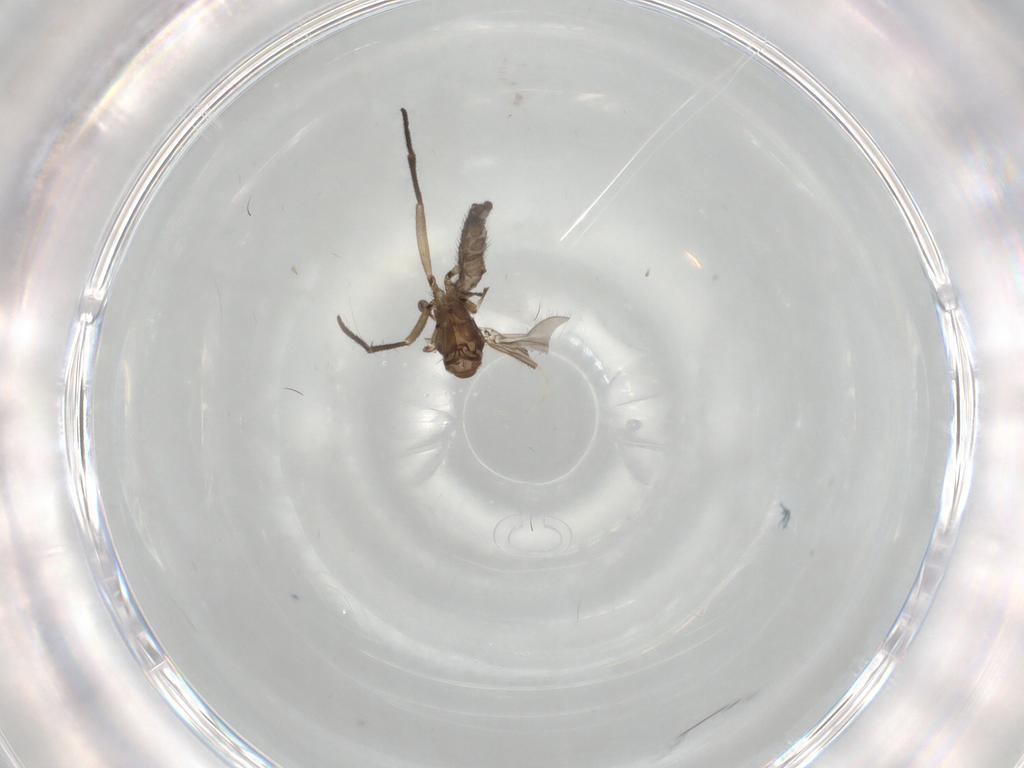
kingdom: Animalia
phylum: Arthropoda
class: Insecta
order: Diptera
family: Sciaridae
